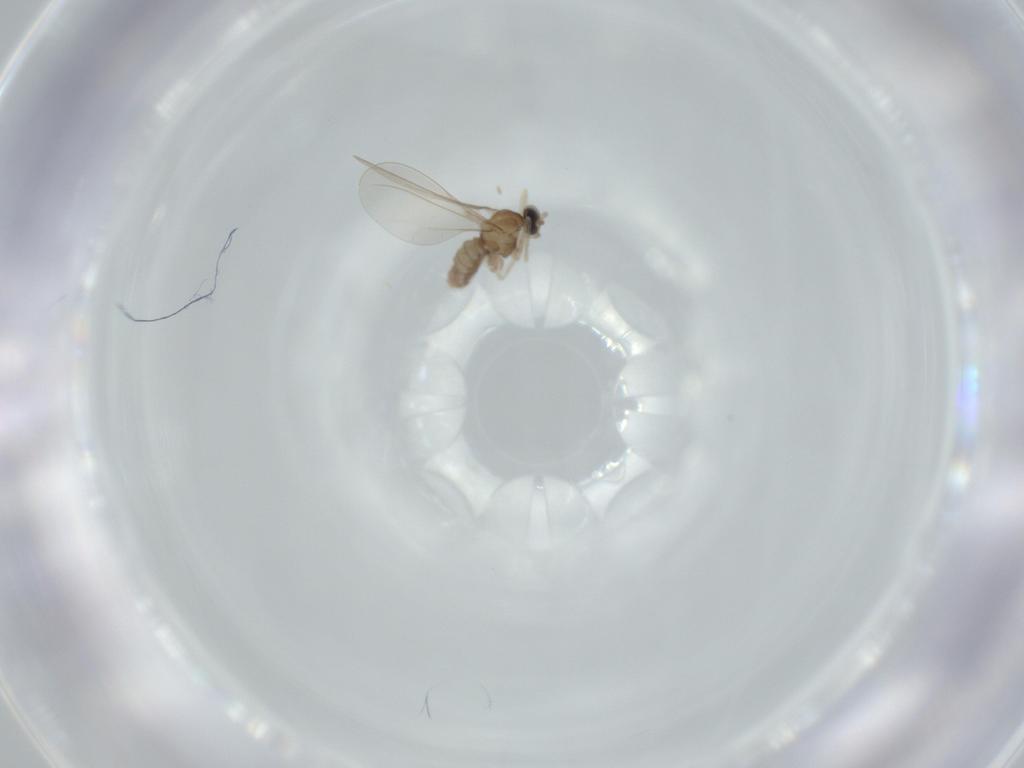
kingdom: Animalia
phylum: Arthropoda
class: Insecta
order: Diptera
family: Cecidomyiidae
